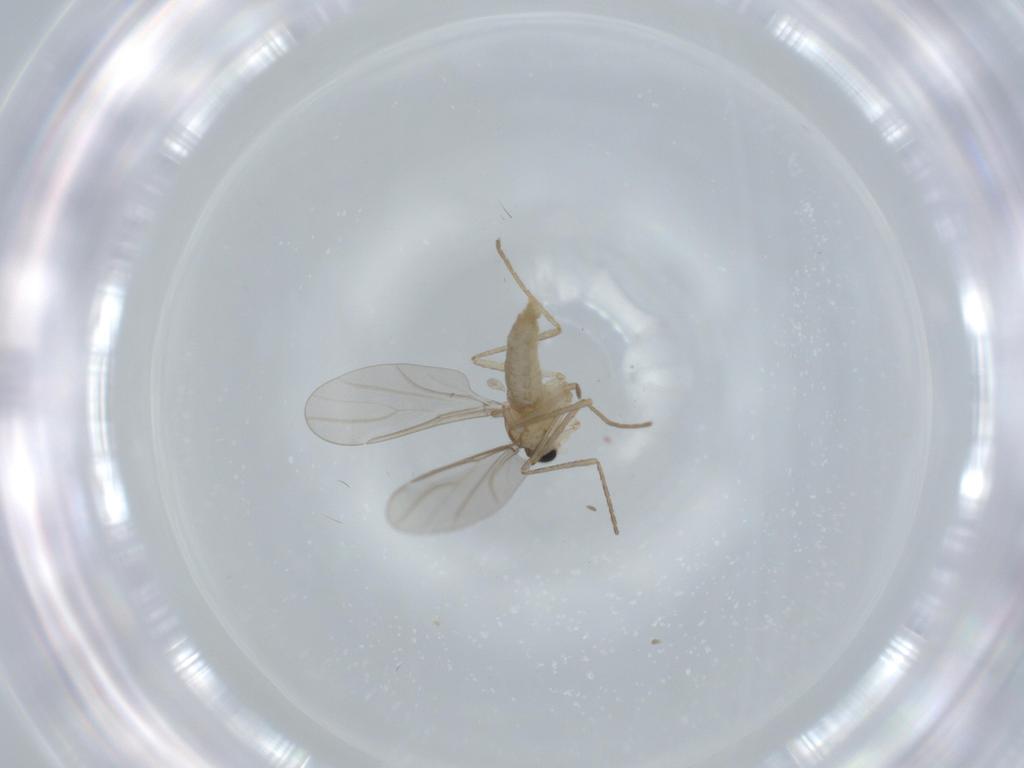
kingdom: Animalia
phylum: Arthropoda
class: Insecta
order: Diptera
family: Cecidomyiidae
